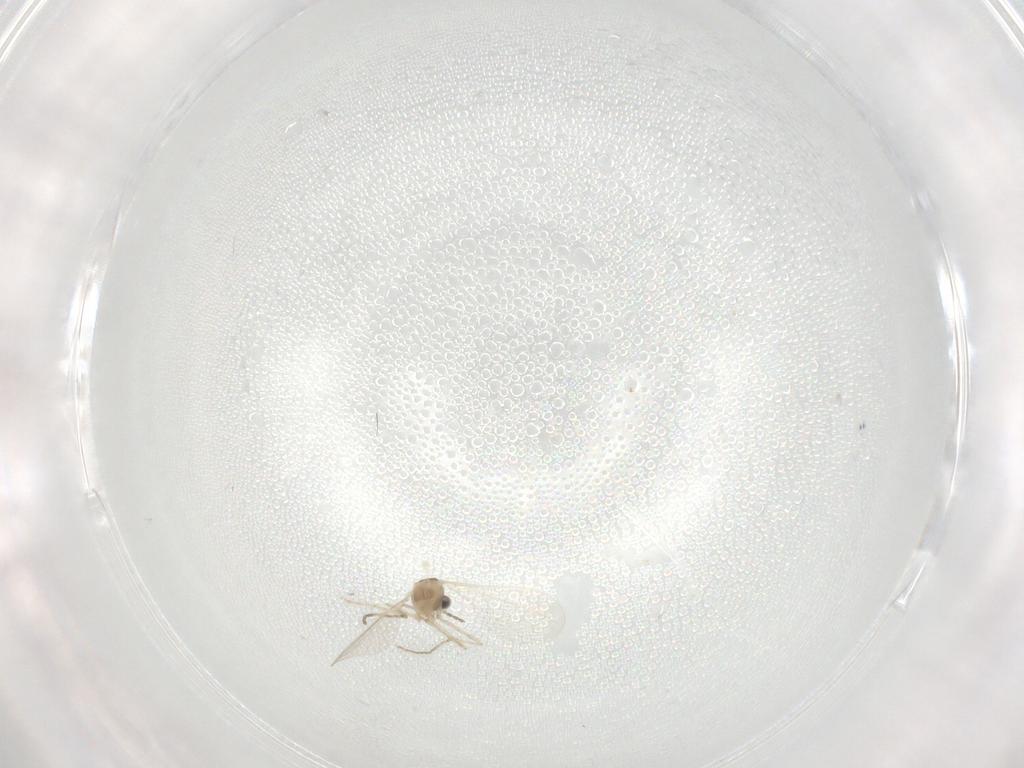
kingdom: Animalia
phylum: Arthropoda
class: Insecta
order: Diptera
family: Cecidomyiidae
